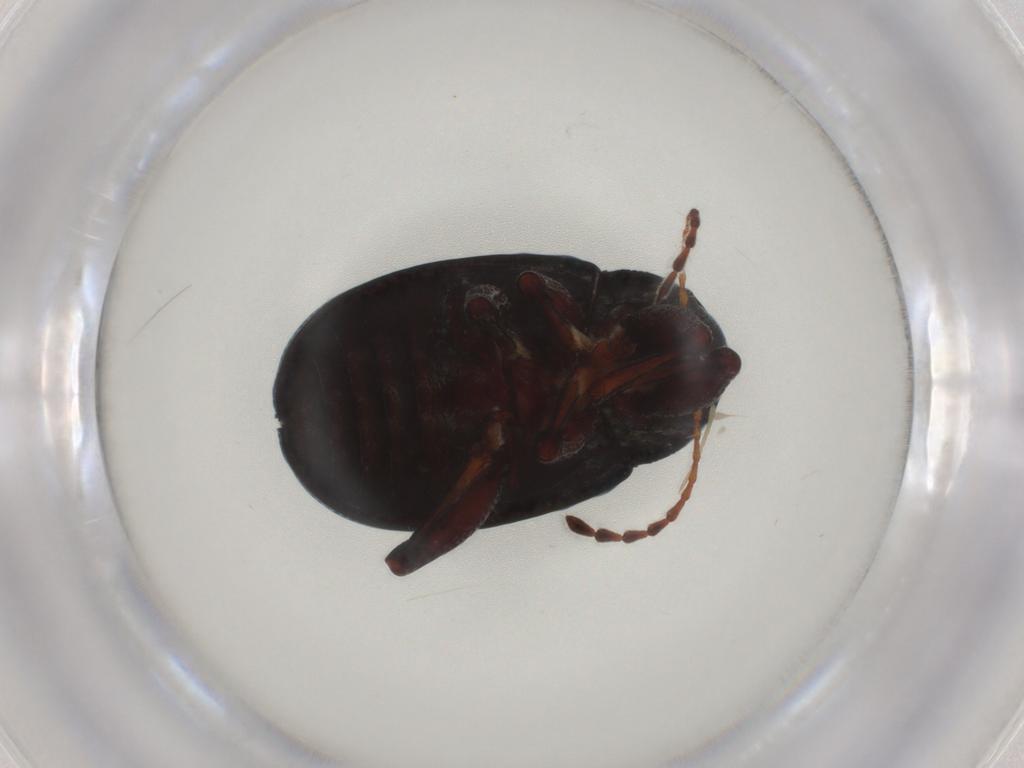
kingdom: Animalia
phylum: Arthropoda
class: Insecta
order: Coleoptera
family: Chrysomelidae
